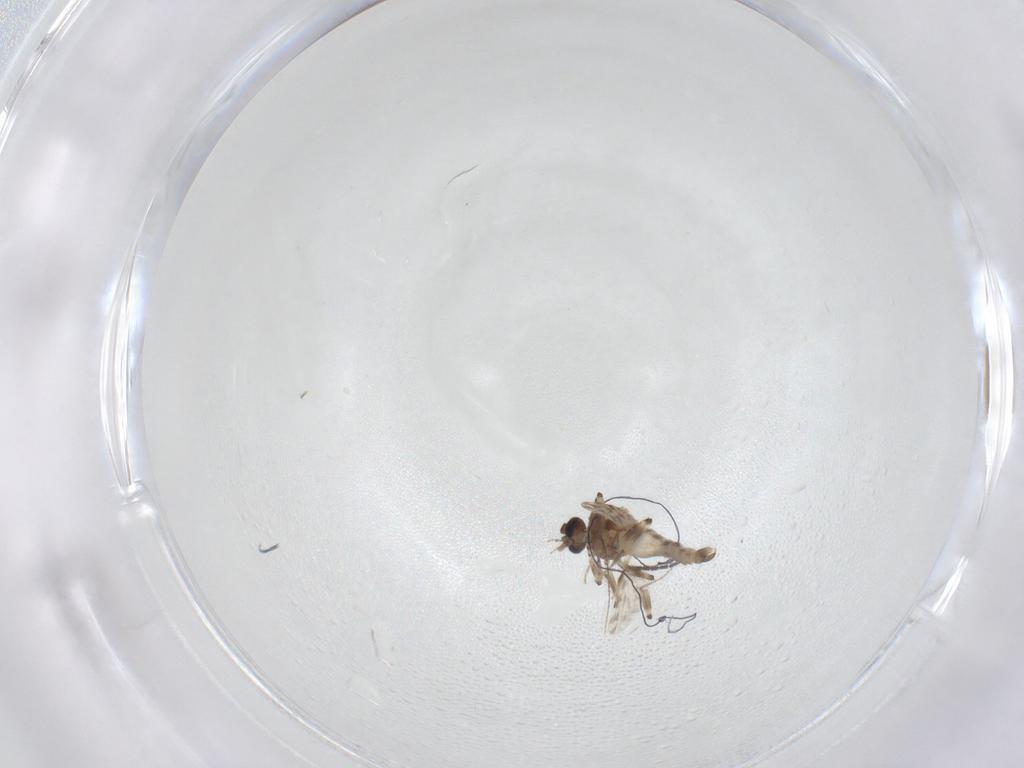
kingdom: Animalia
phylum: Arthropoda
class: Insecta
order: Diptera
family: Sciaridae
